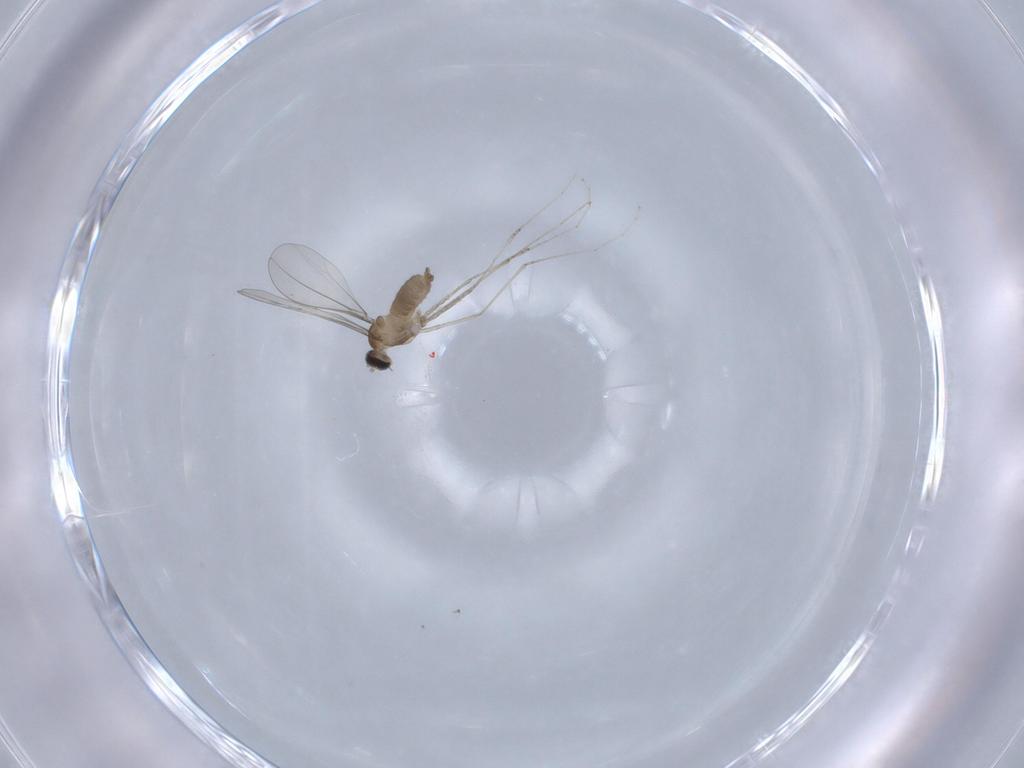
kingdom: Animalia
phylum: Arthropoda
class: Insecta
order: Diptera
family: Cecidomyiidae
